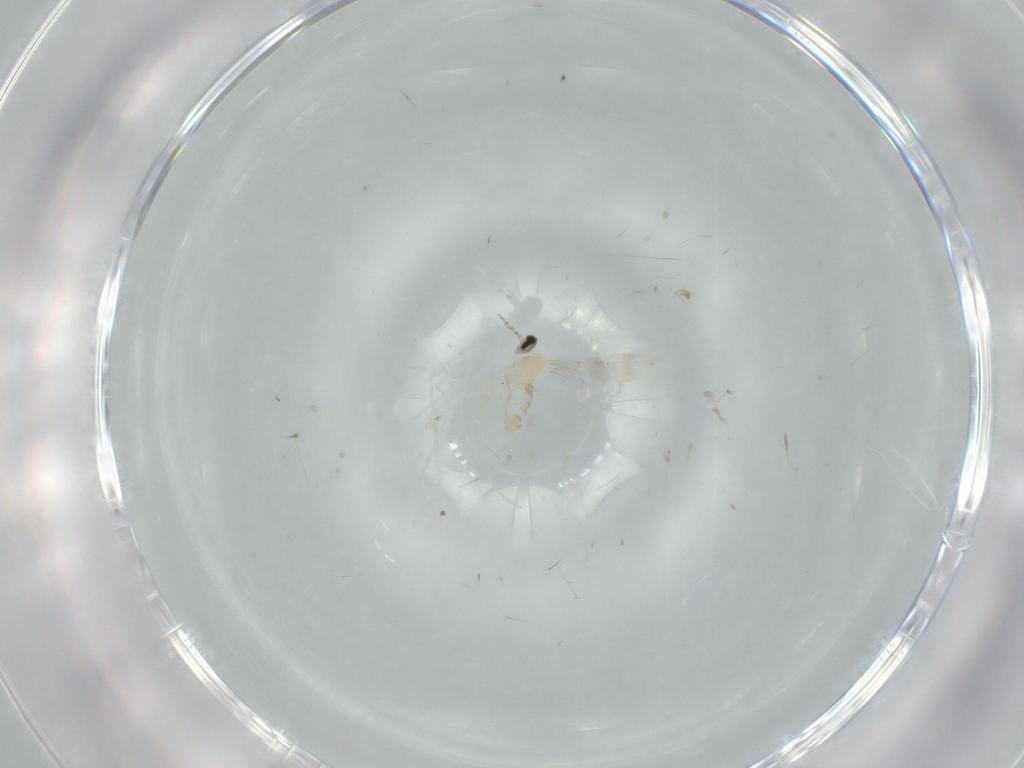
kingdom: Animalia
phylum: Arthropoda
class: Insecta
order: Diptera
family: Cecidomyiidae
